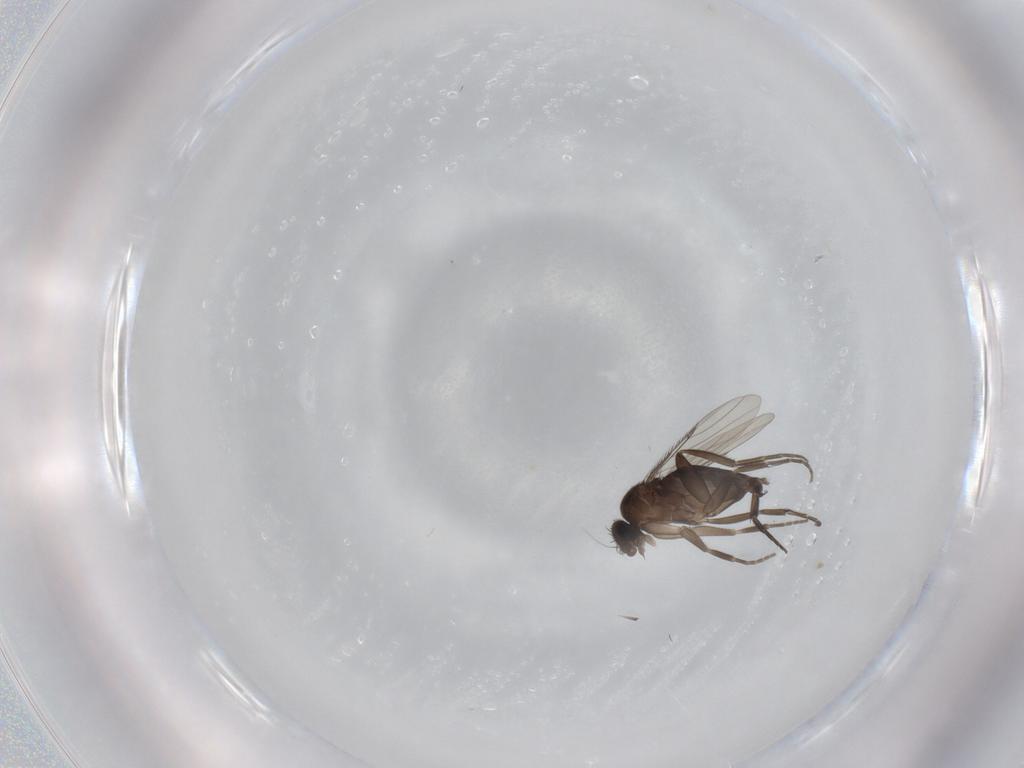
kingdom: Animalia
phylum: Arthropoda
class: Insecta
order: Diptera
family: Phoridae
